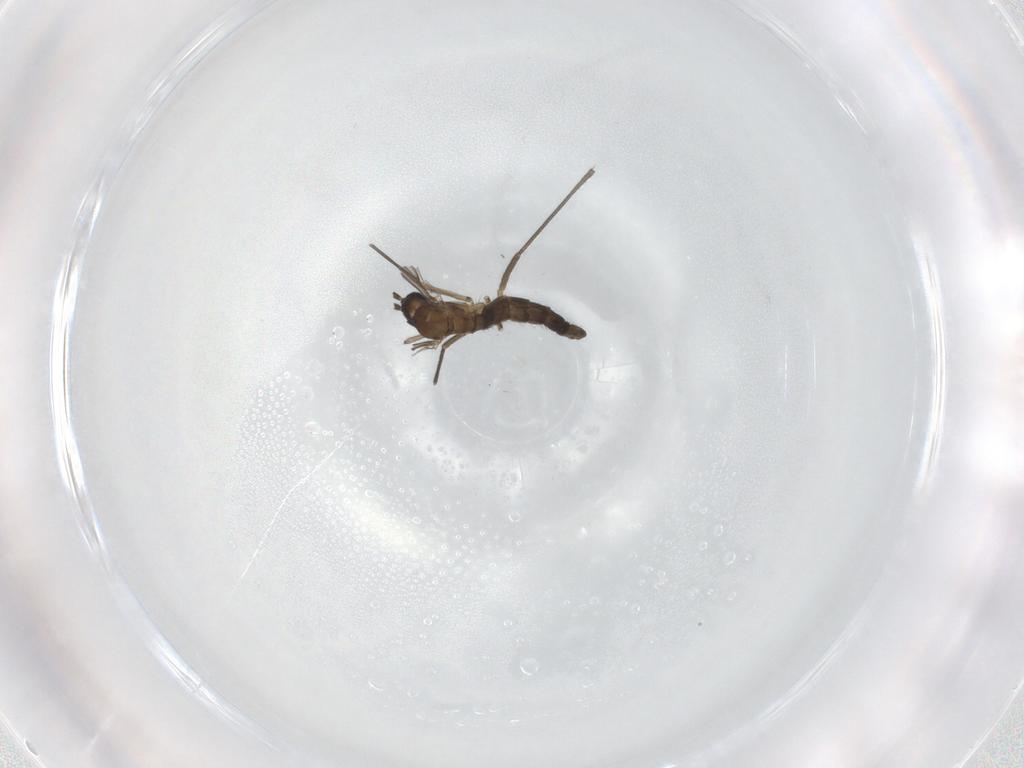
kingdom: Animalia
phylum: Arthropoda
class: Insecta
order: Diptera
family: Sciaridae
